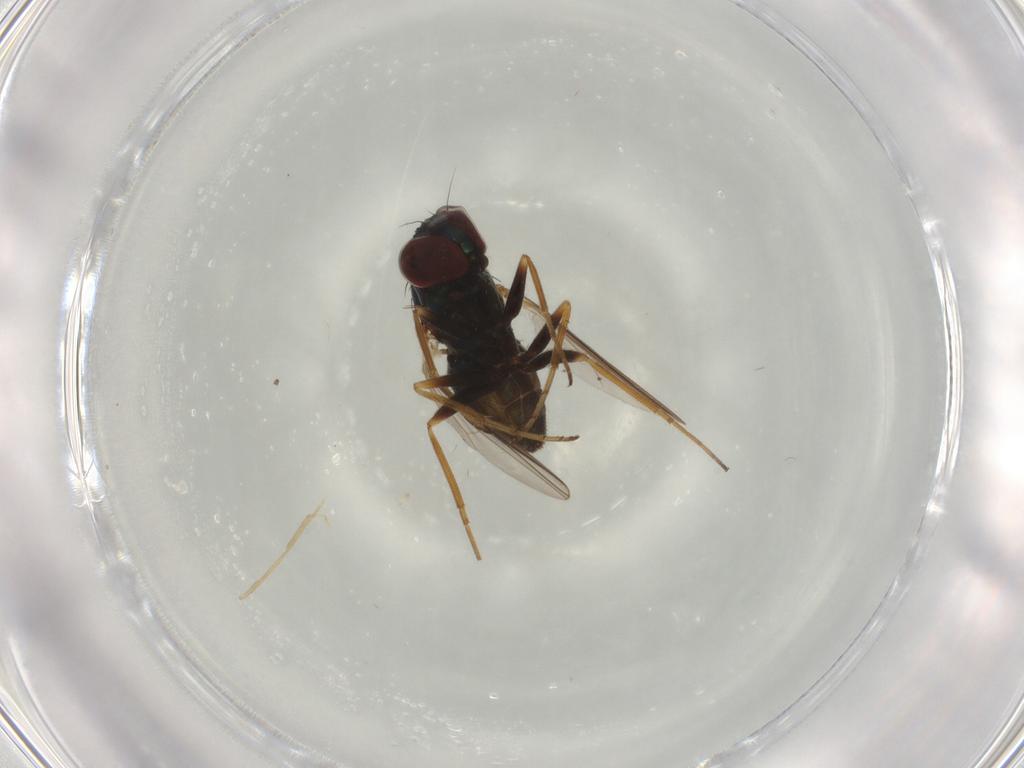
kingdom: Animalia
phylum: Arthropoda
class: Insecta
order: Diptera
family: Dolichopodidae
